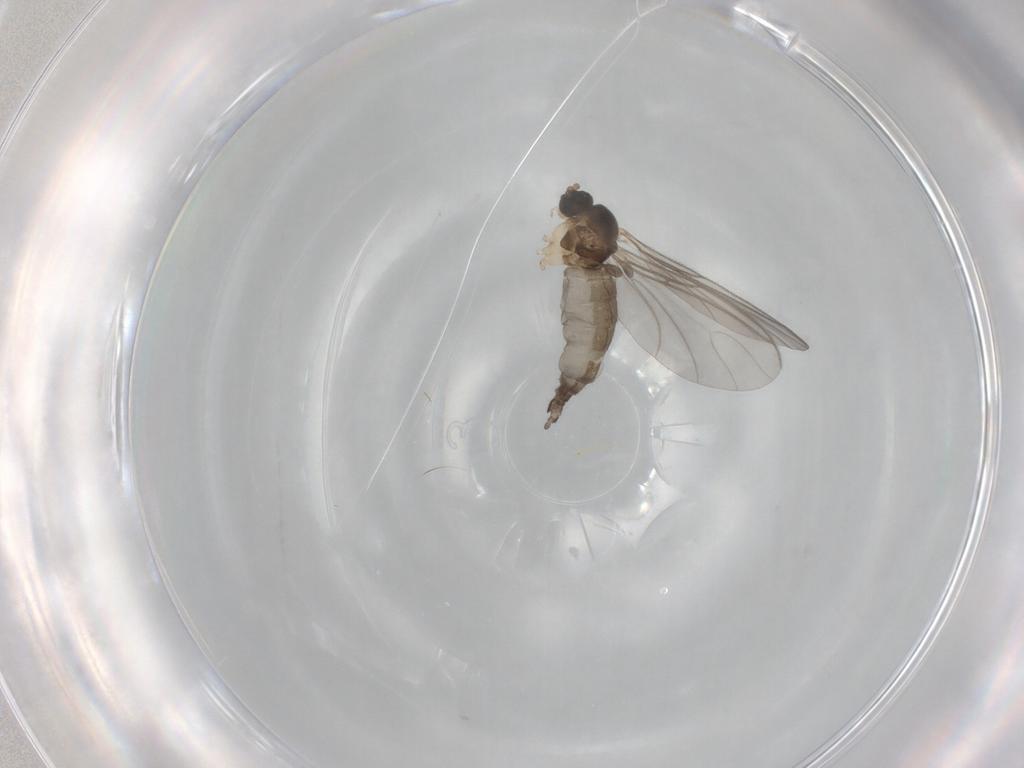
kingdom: Animalia
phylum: Arthropoda
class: Insecta
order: Diptera
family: Sciaridae
